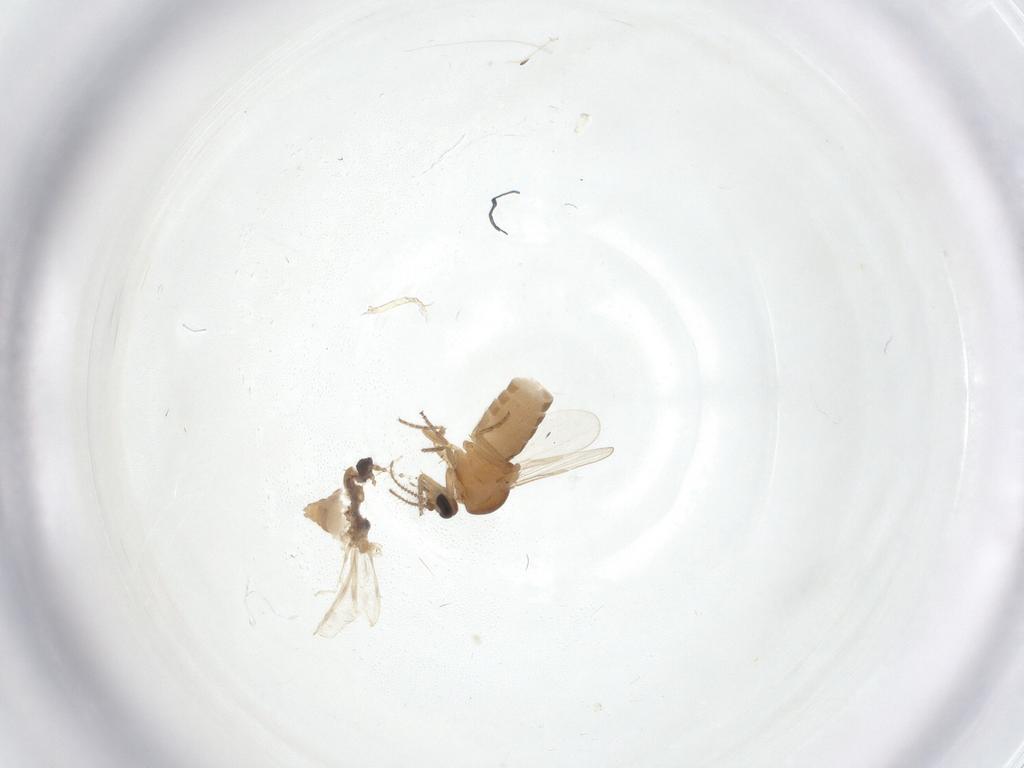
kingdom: Animalia
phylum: Arthropoda
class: Insecta
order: Diptera
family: Ceratopogonidae
